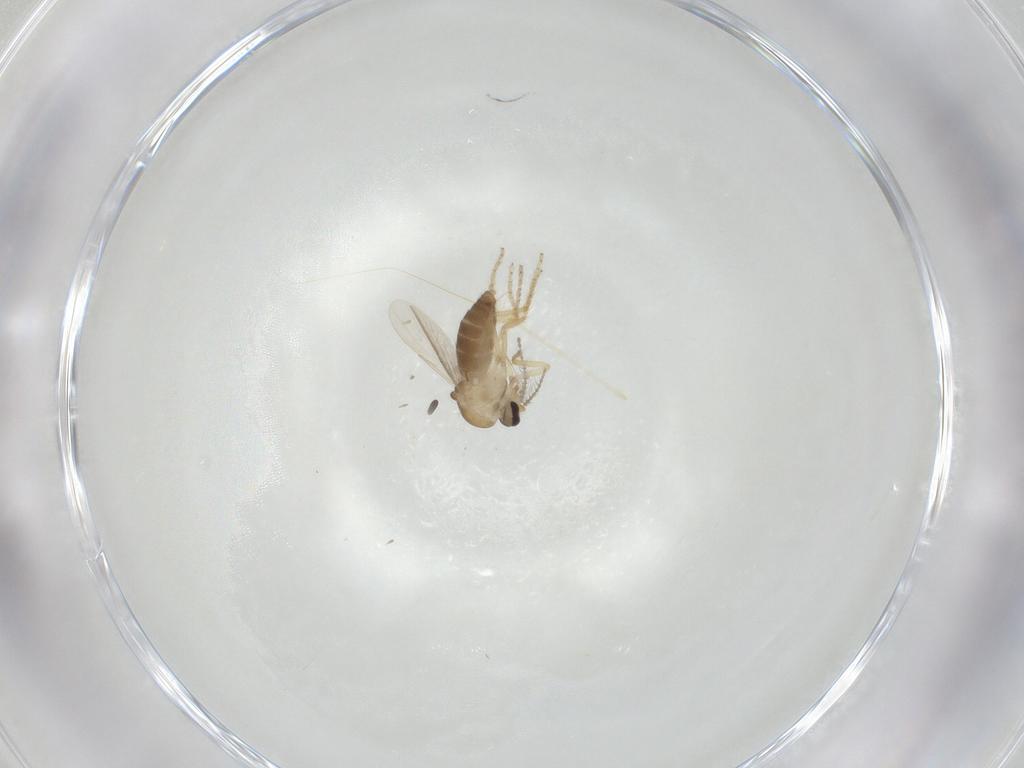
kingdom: Animalia
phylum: Arthropoda
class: Insecta
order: Diptera
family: Ceratopogonidae
